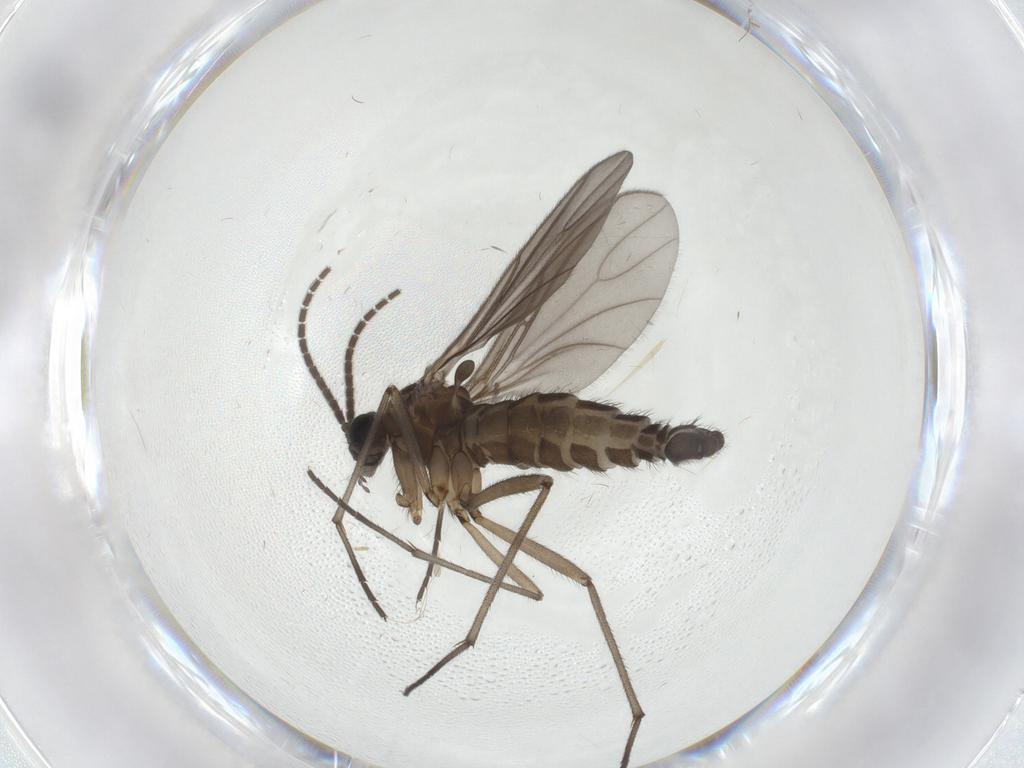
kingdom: Animalia
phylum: Arthropoda
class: Insecta
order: Diptera
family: Sciaridae
